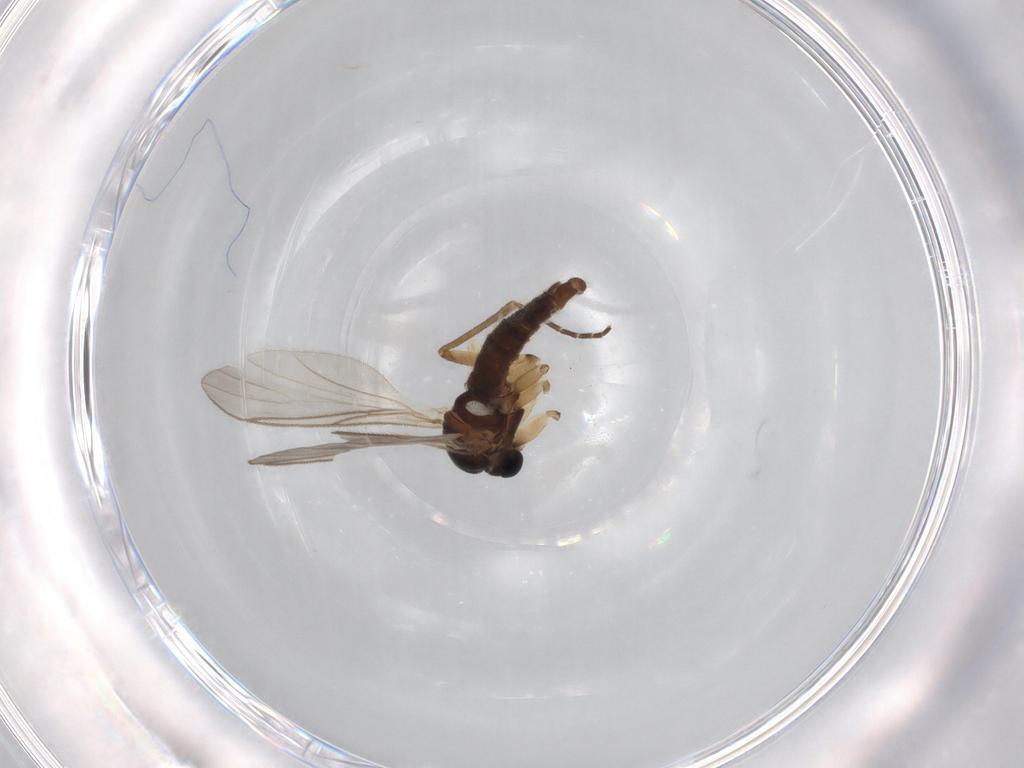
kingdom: Animalia
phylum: Arthropoda
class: Insecta
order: Diptera
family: Sciaridae
